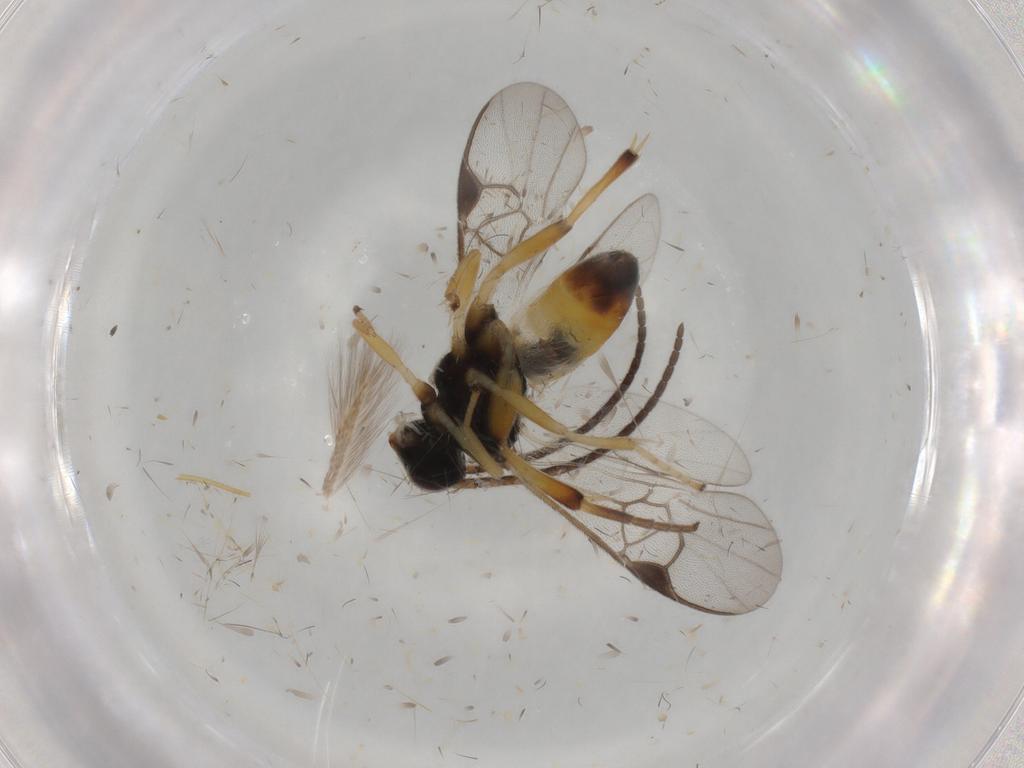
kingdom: Animalia
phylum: Arthropoda
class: Insecta
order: Hymenoptera
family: Braconidae
